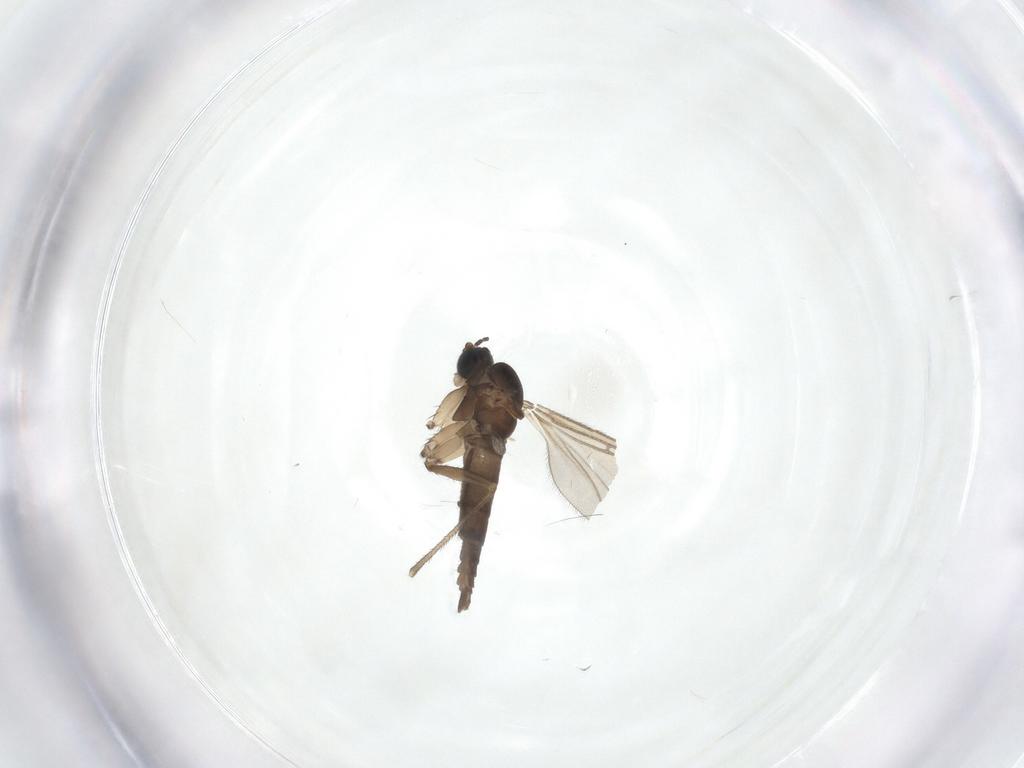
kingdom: Animalia
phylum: Arthropoda
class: Insecta
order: Diptera
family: Sciaridae
